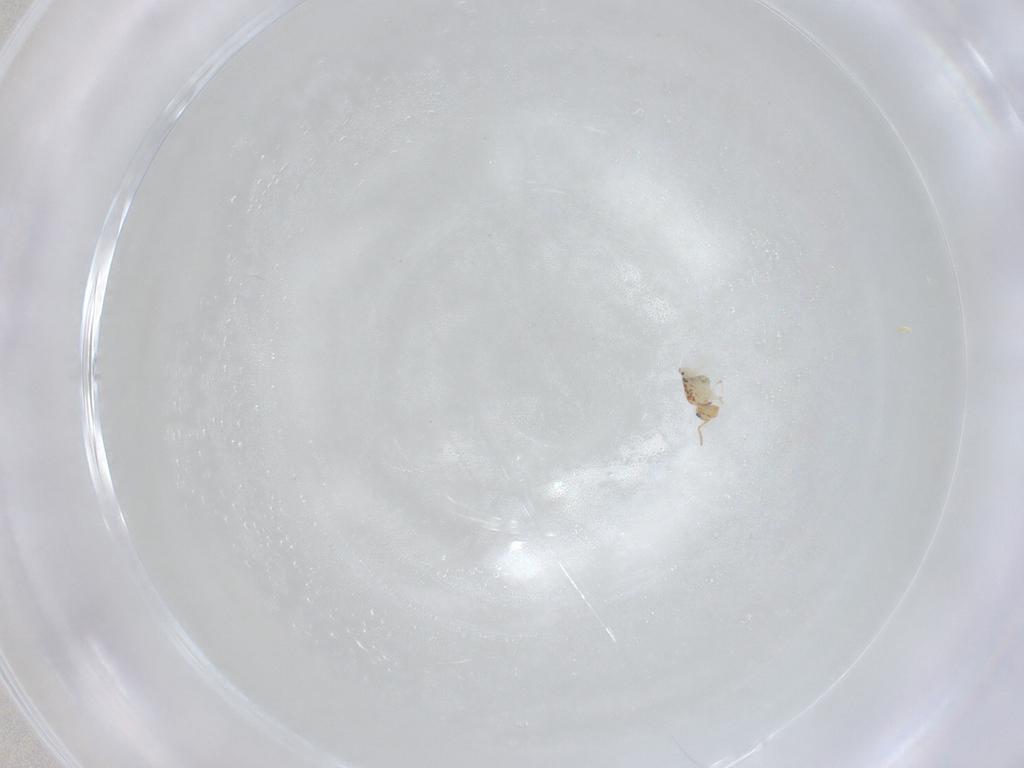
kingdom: Animalia
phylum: Arthropoda
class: Collembola
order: Symphypleona
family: Bourletiellidae
